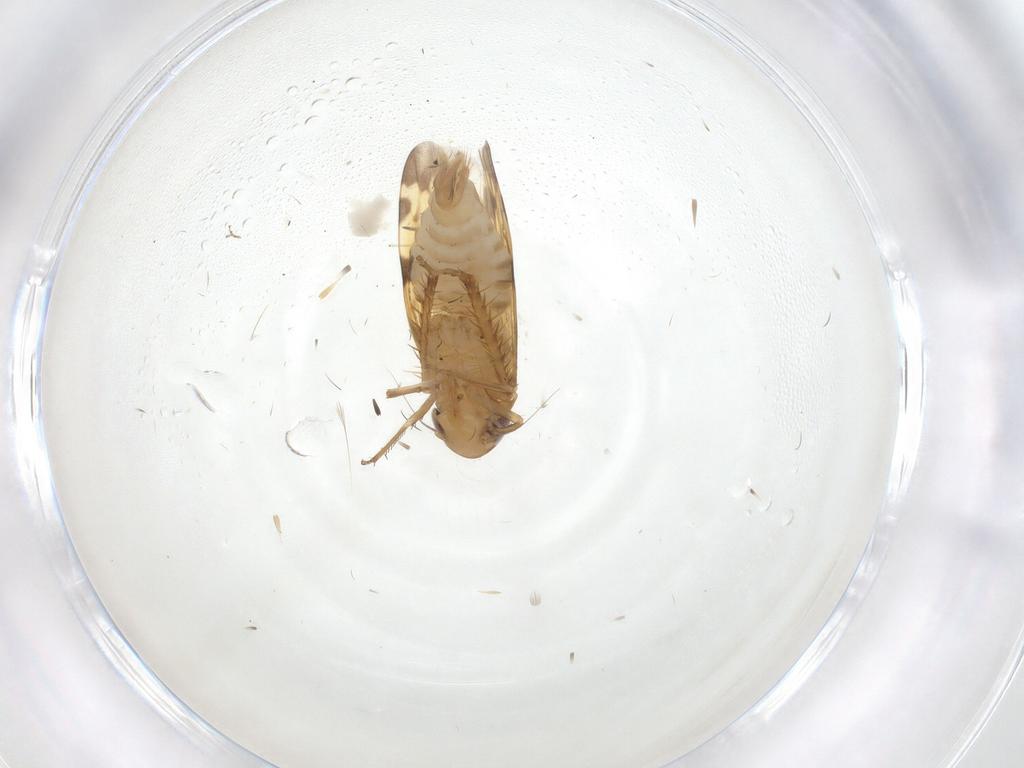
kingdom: Animalia
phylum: Arthropoda
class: Insecta
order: Hemiptera
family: Cicadellidae
